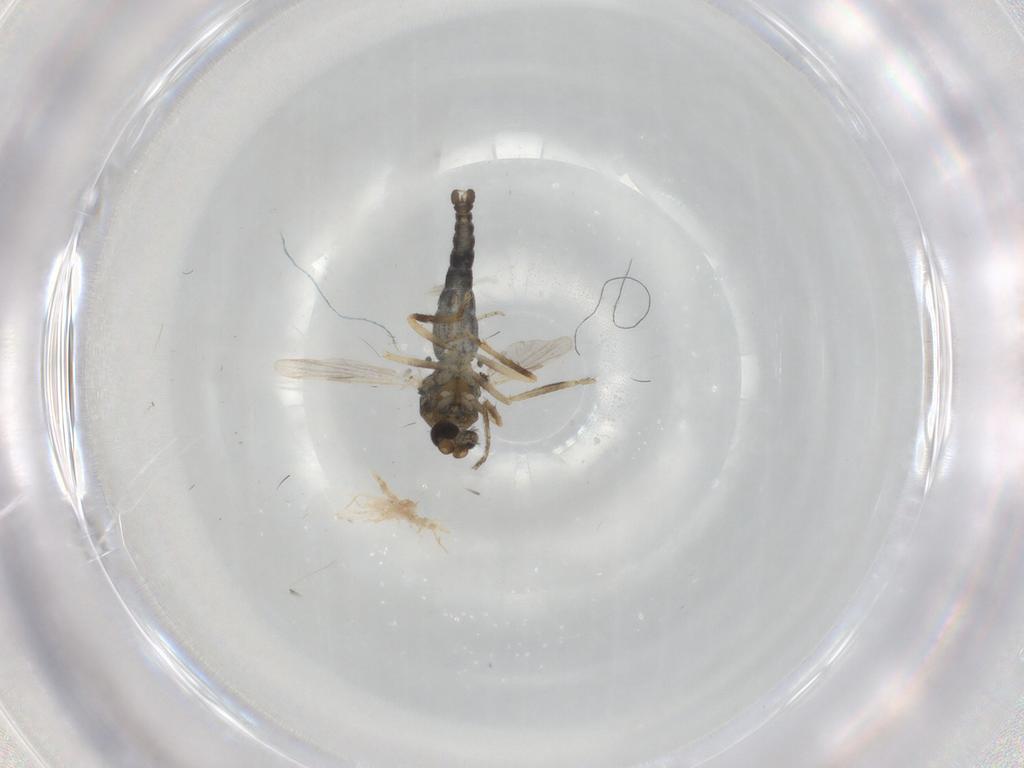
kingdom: Animalia
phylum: Arthropoda
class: Insecta
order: Diptera
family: Ceratopogonidae
